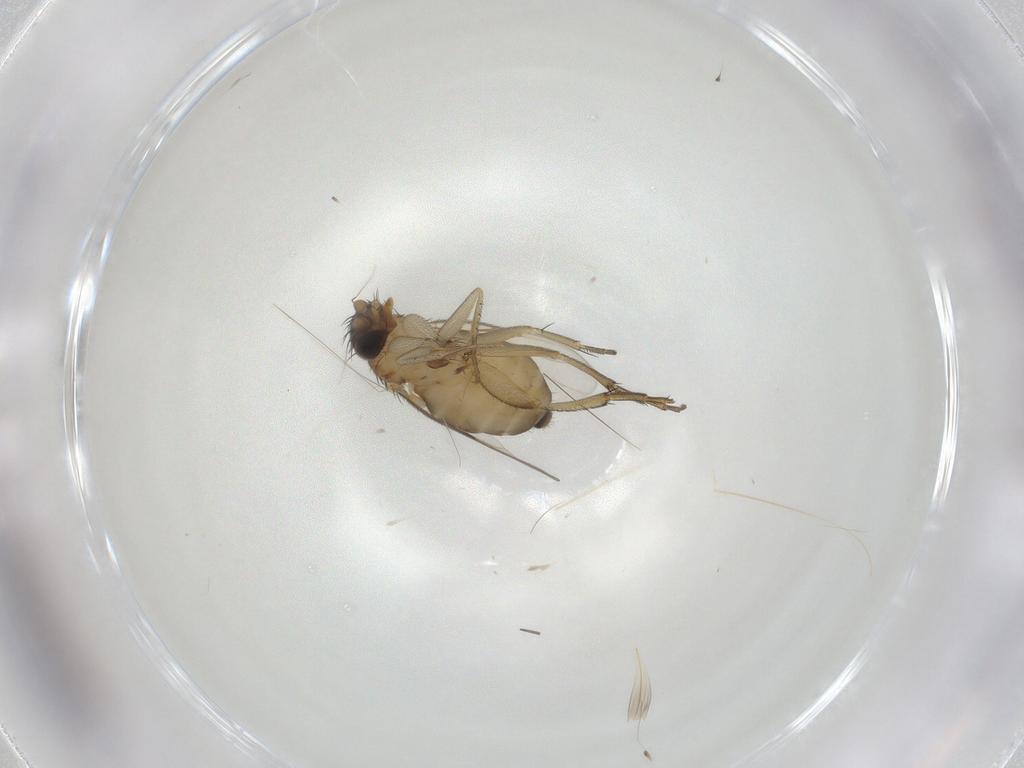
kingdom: Animalia
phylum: Arthropoda
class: Insecta
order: Diptera
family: Phoridae
